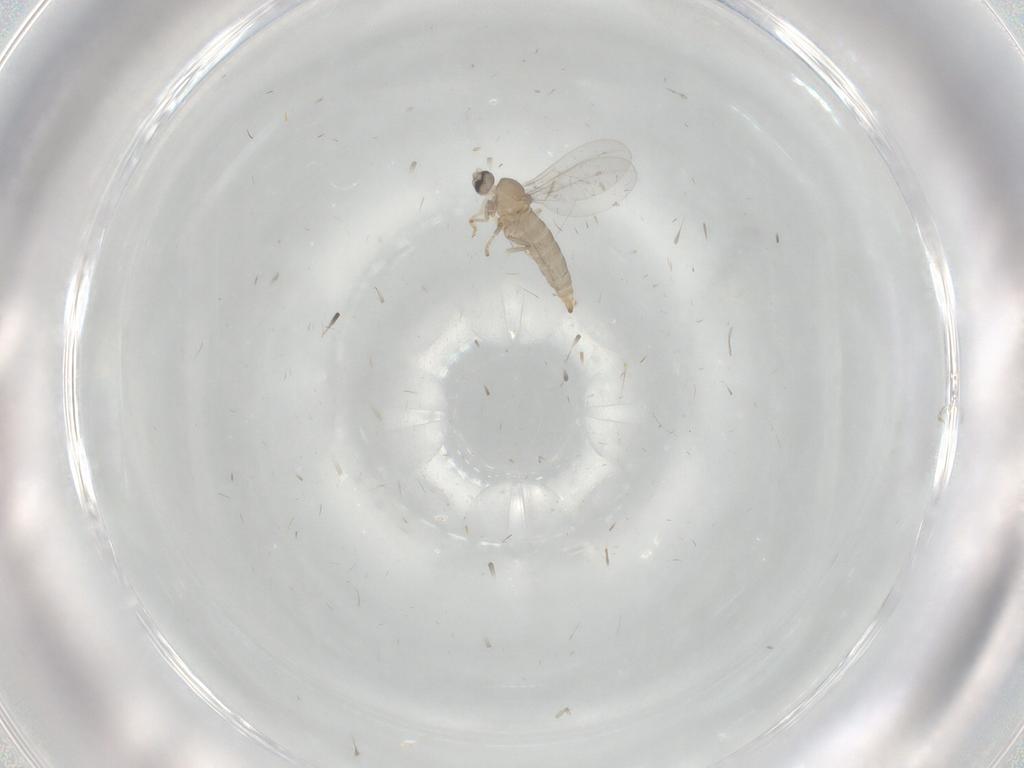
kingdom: Animalia
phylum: Arthropoda
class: Insecta
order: Diptera
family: Cecidomyiidae
